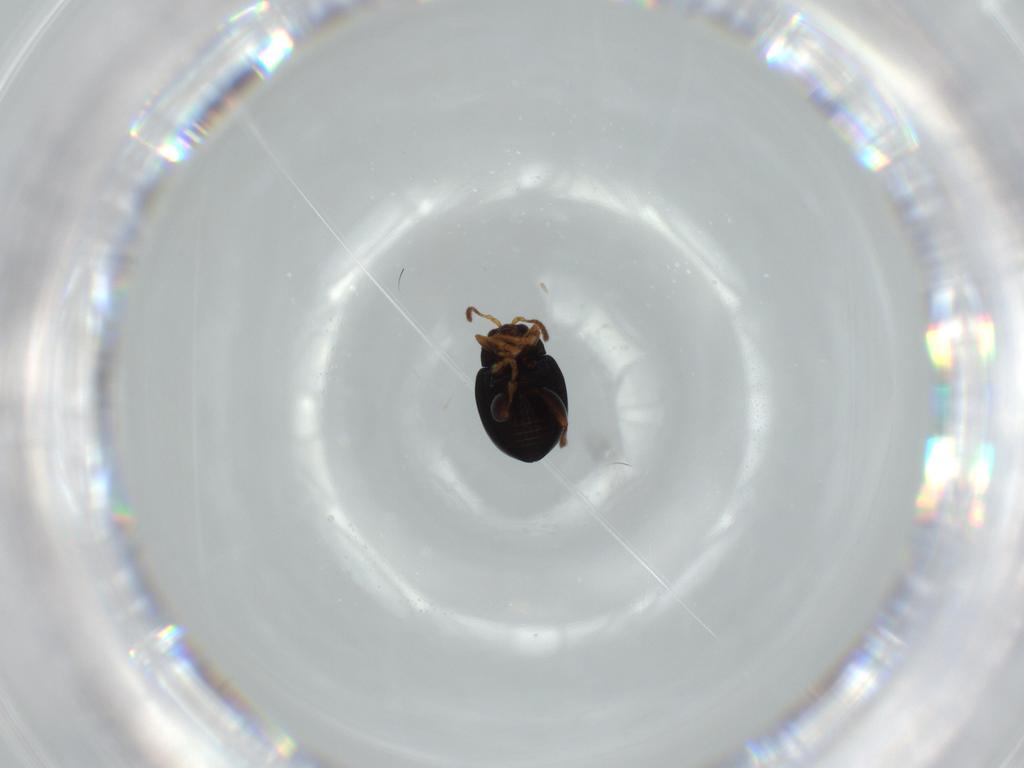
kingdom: Animalia
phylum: Arthropoda
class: Insecta
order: Coleoptera
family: Chrysomelidae
